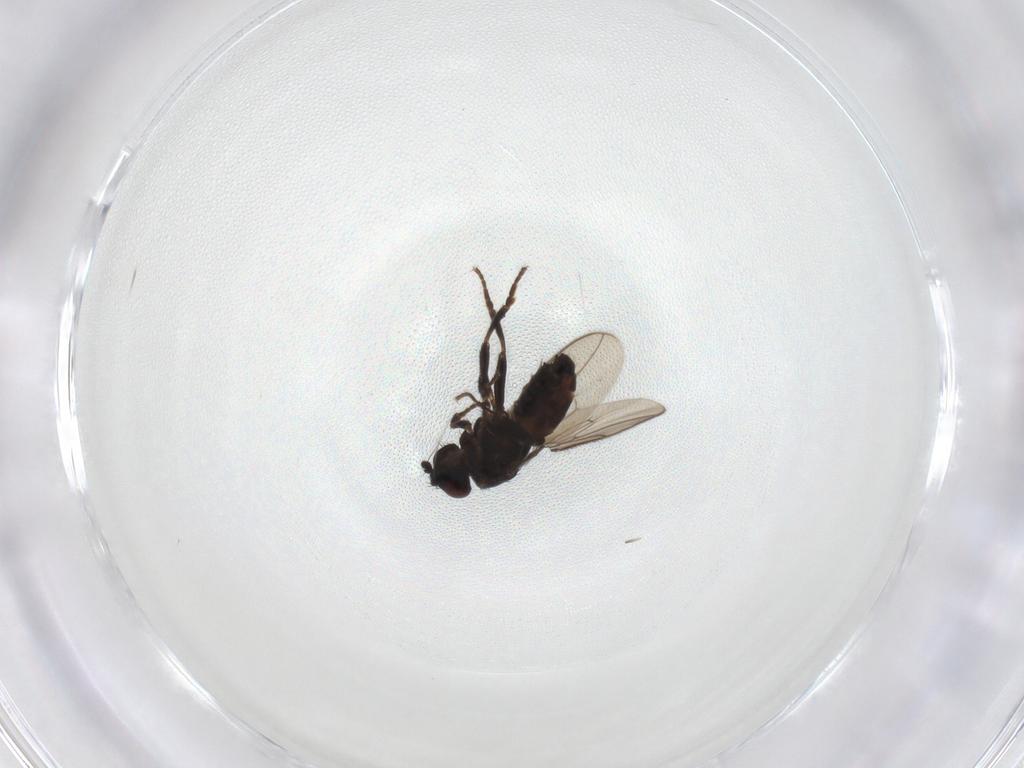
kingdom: Animalia
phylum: Arthropoda
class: Insecta
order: Diptera
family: Sphaeroceridae
